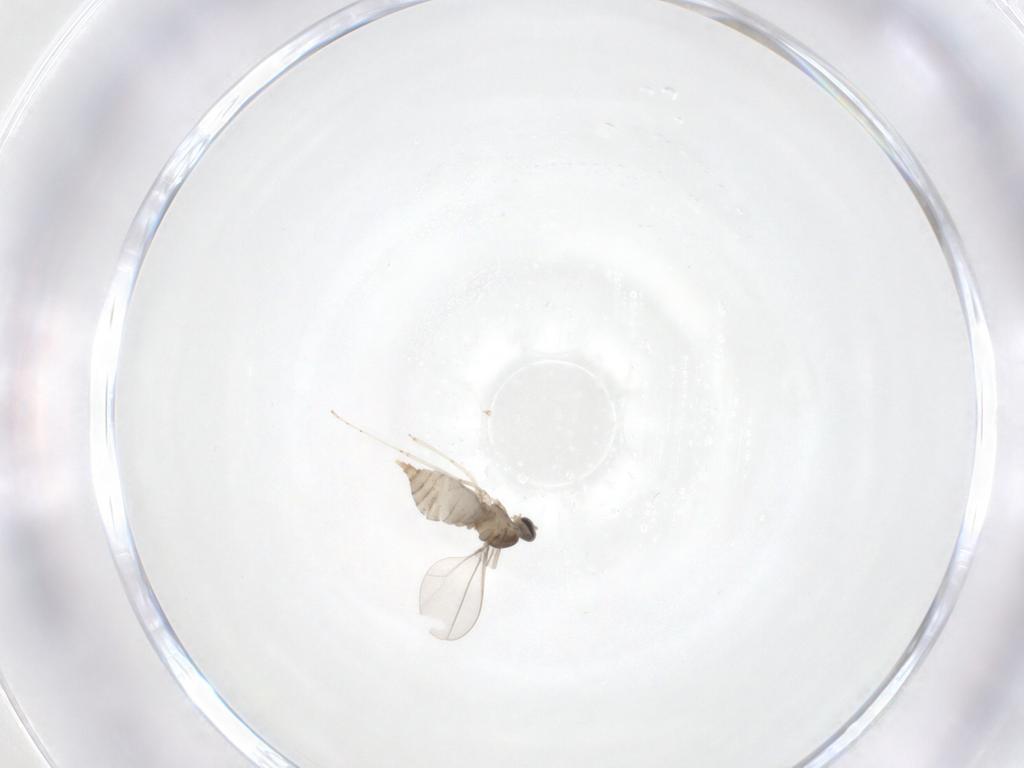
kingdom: Animalia
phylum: Arthropoda
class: Insecta
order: Diptera
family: Cecidomyiidae
